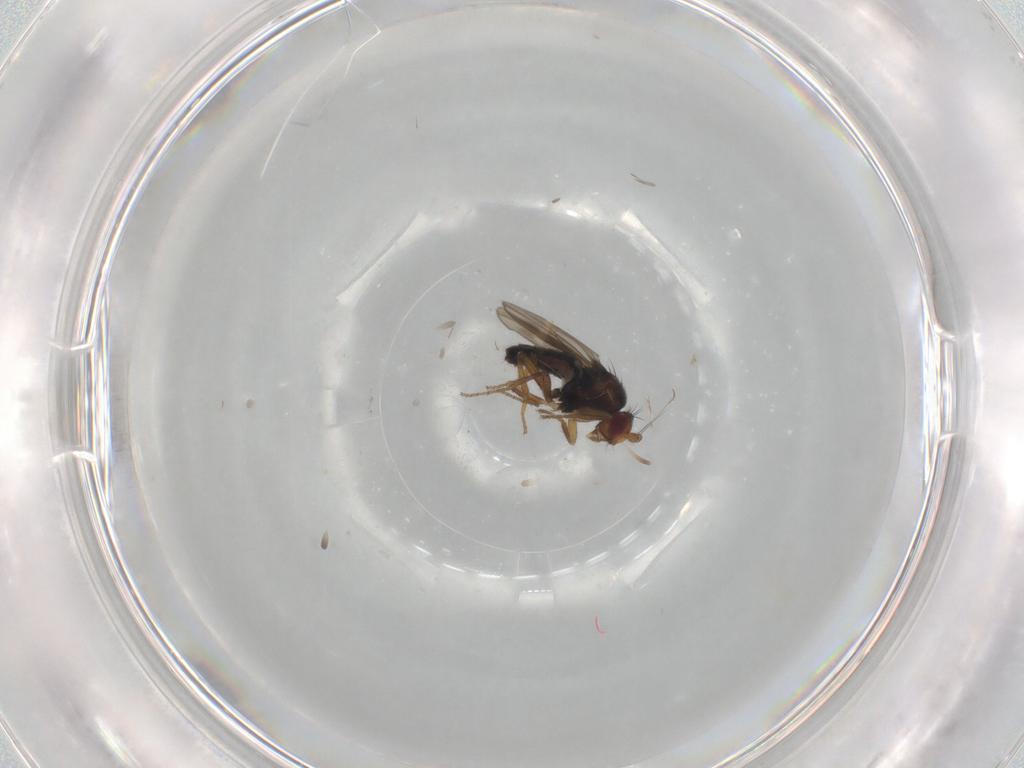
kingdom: Animalia
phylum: Arthropoda
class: Insecta
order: Diptera
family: Sphaeroceridae
